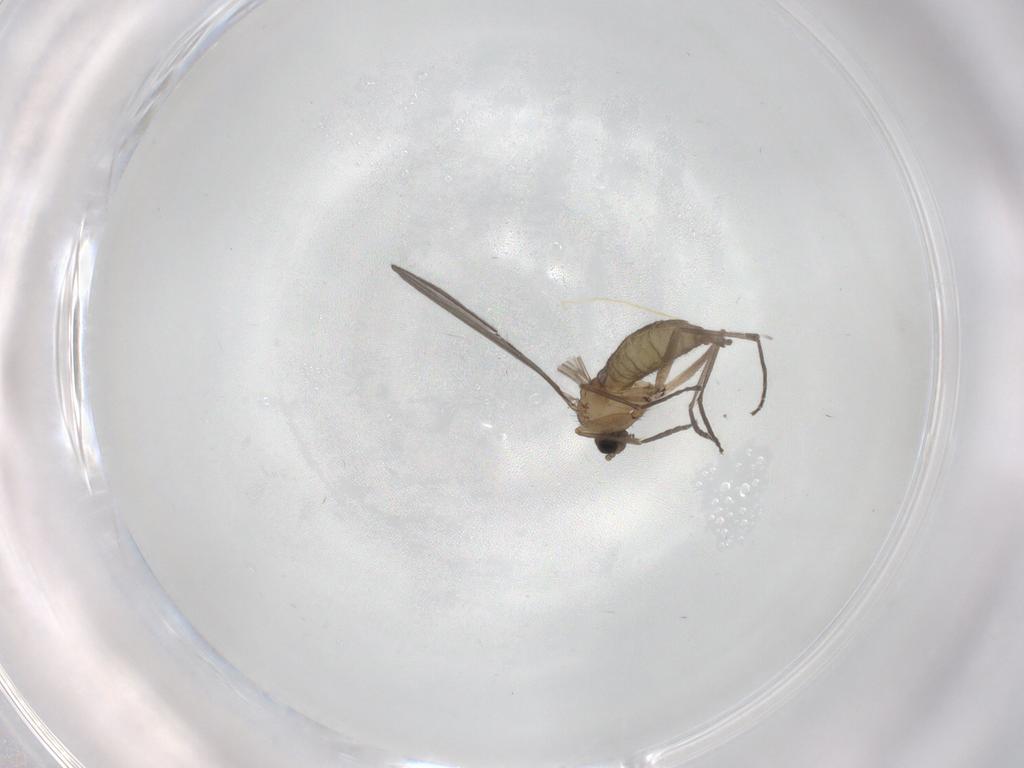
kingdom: Animalia
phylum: Arthropoda
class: Insecta
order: Diptera
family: Sciaridae
